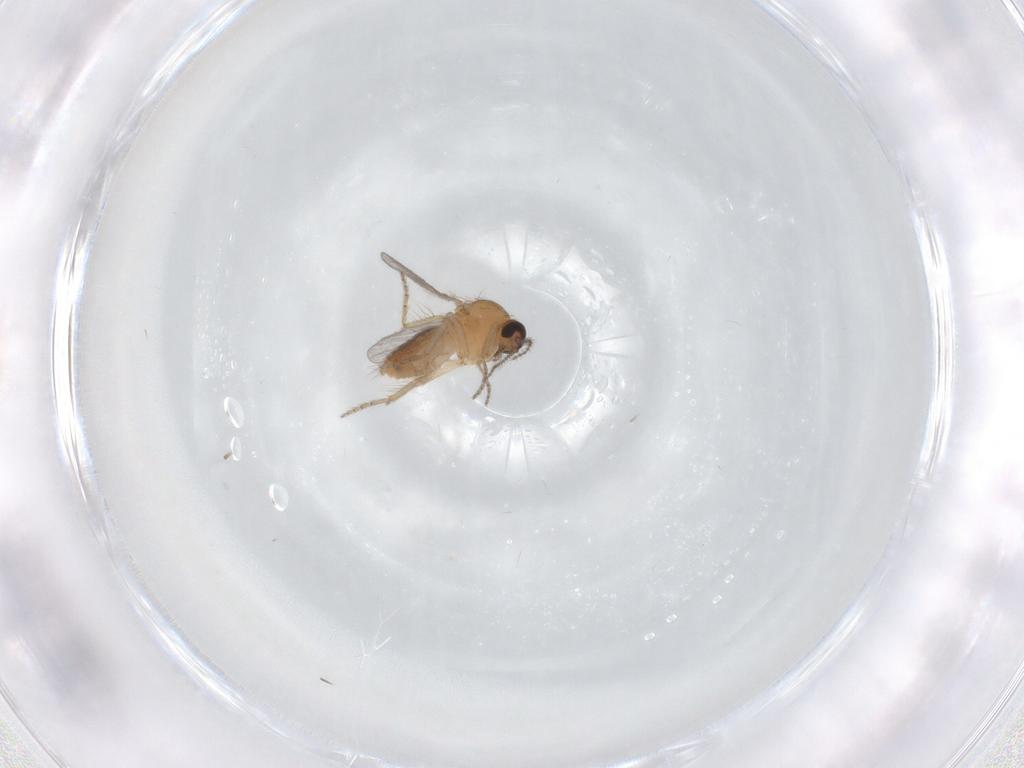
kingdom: Animalia
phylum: Arthropoda
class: Insecta
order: Diptera
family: Ceratopogonidae
